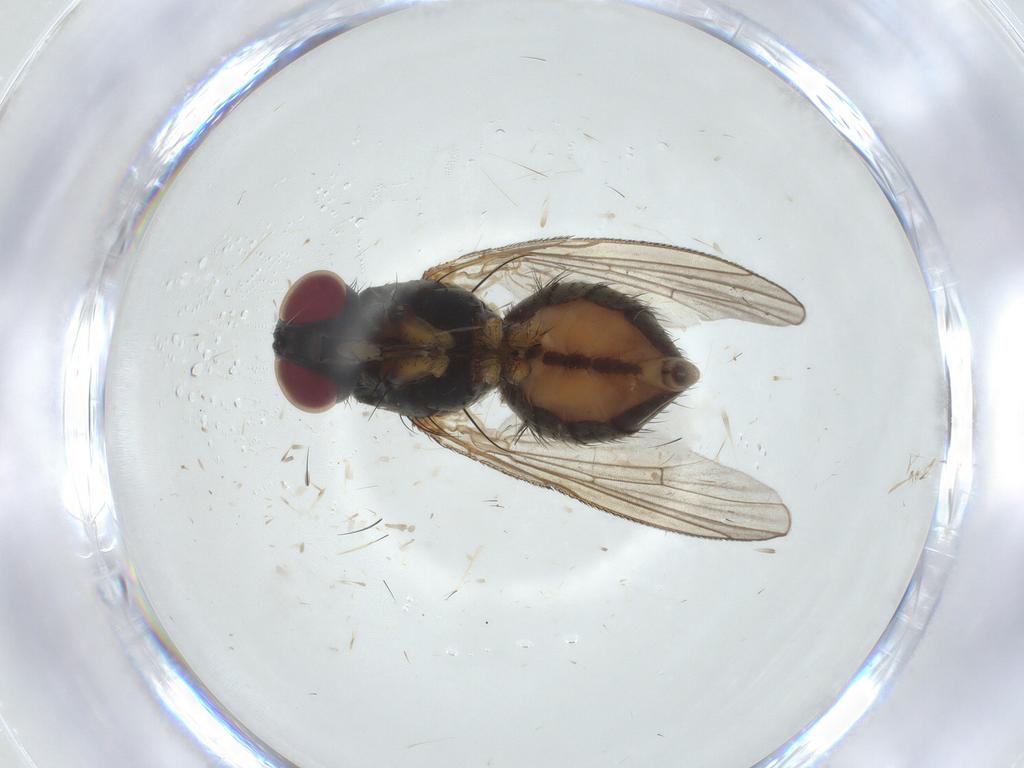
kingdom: Animalia
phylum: Arthropoda
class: Insecta
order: Diptera
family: Muscidae
